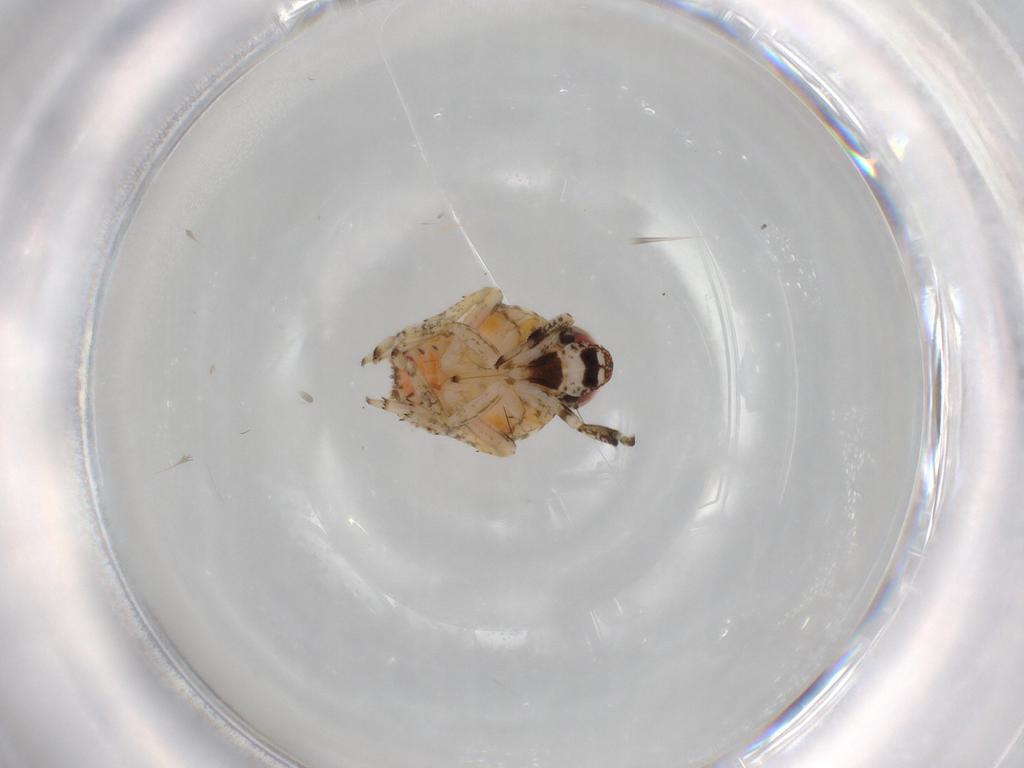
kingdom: Animalia
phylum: Arthropoda
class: Insecta
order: Hemiptera
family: Issidae
